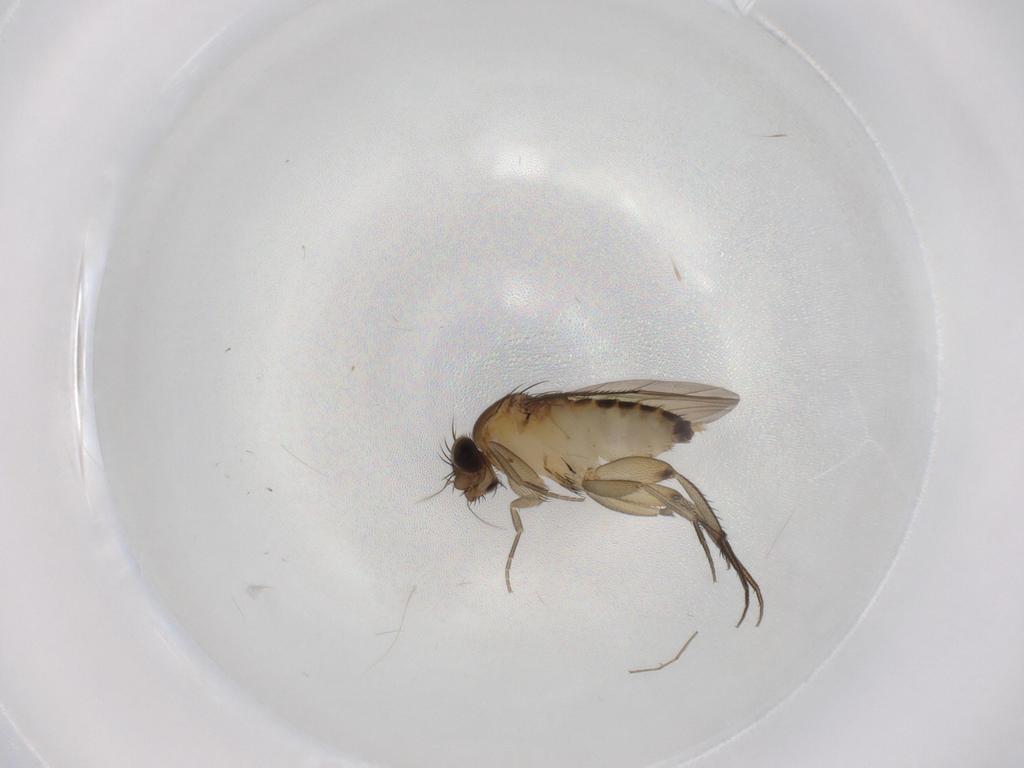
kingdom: Animalia
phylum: Arthropoda
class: Insecta
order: Diptera
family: Phoridae
